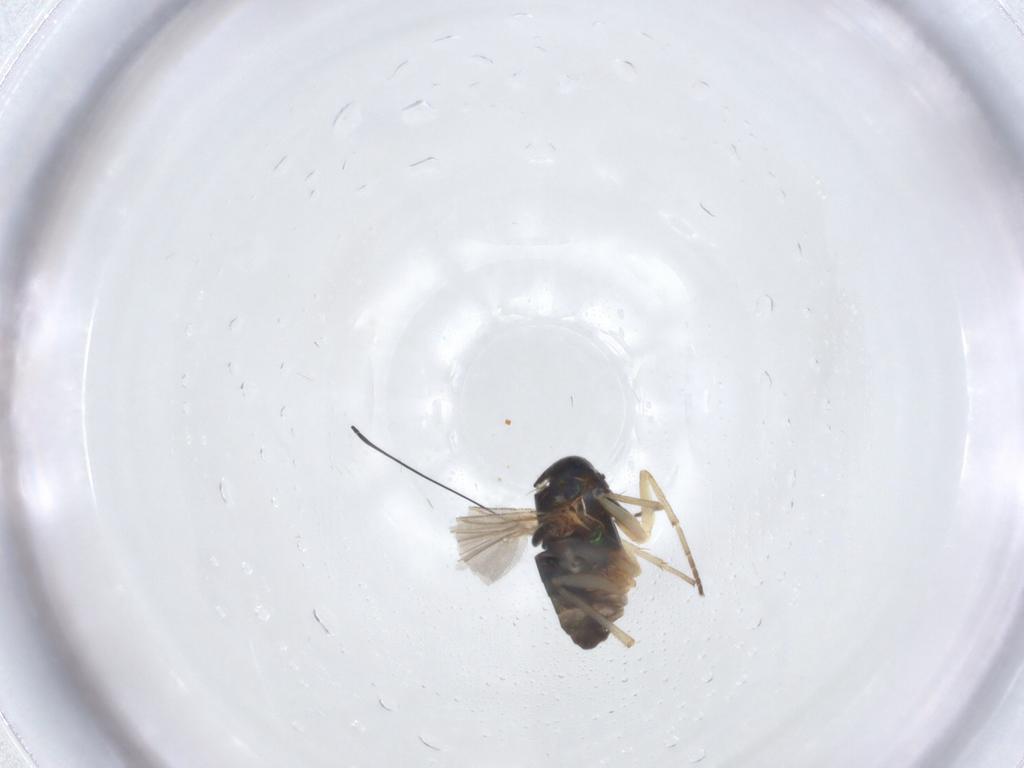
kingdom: Animalia
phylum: Arthropoda
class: Insecta
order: Diptera
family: Dolichopodidae
